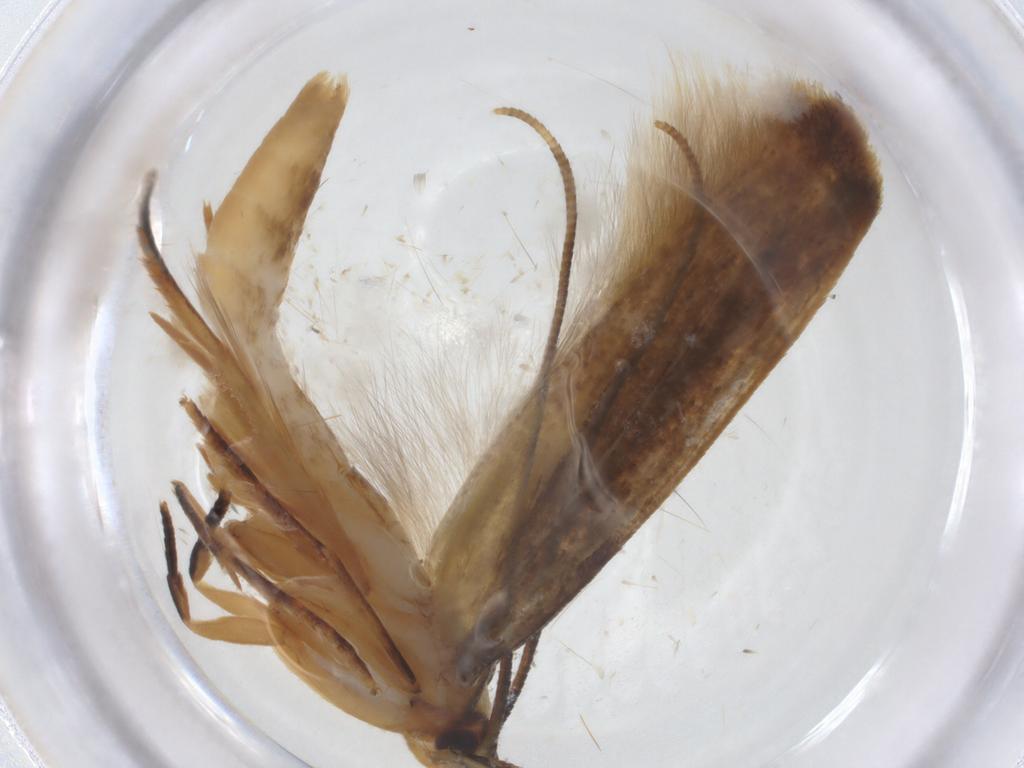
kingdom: Animalia
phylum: Arthropoda
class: Insecta
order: Lepidoptera
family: Tineidae
